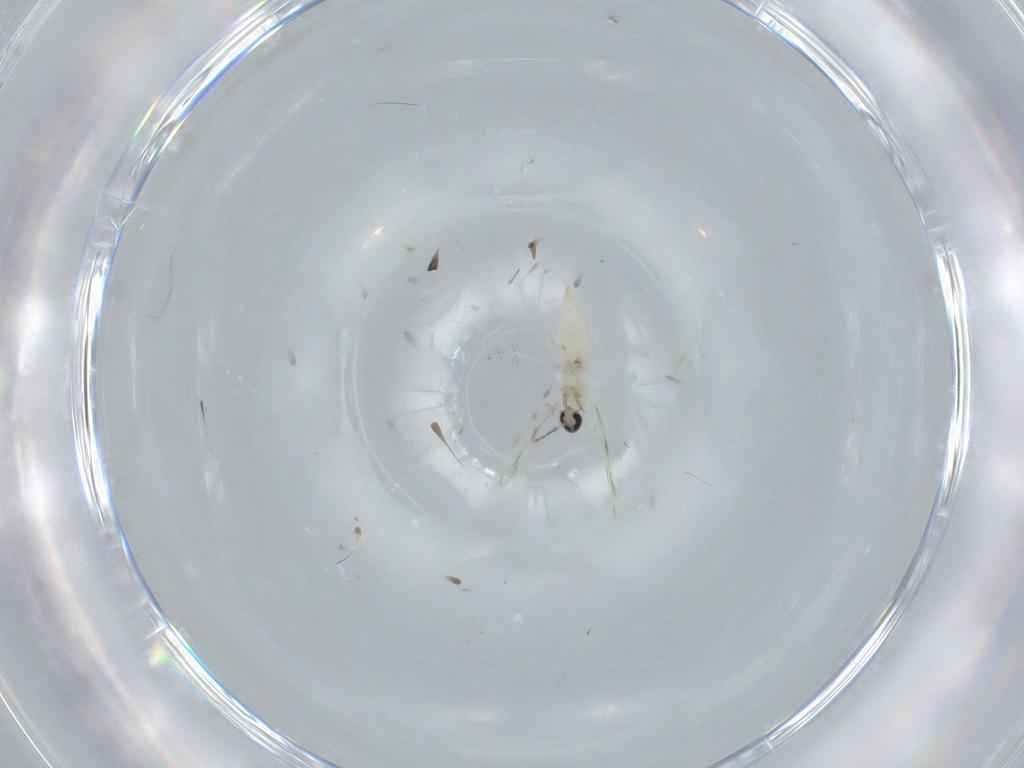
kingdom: Animalia
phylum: Arthropoda
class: Insecta
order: Diptera
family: Cecidomyiidae
